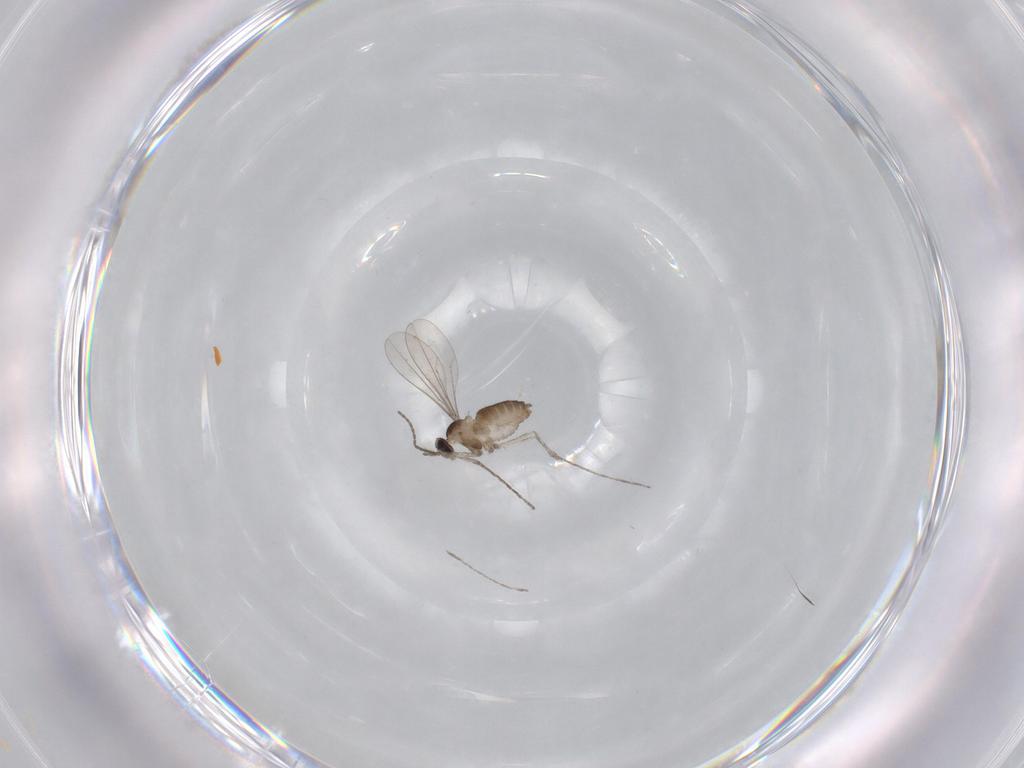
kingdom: Animalia
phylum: Arthropoda
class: Insecta
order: Diptera
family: Cecidomyiidae
